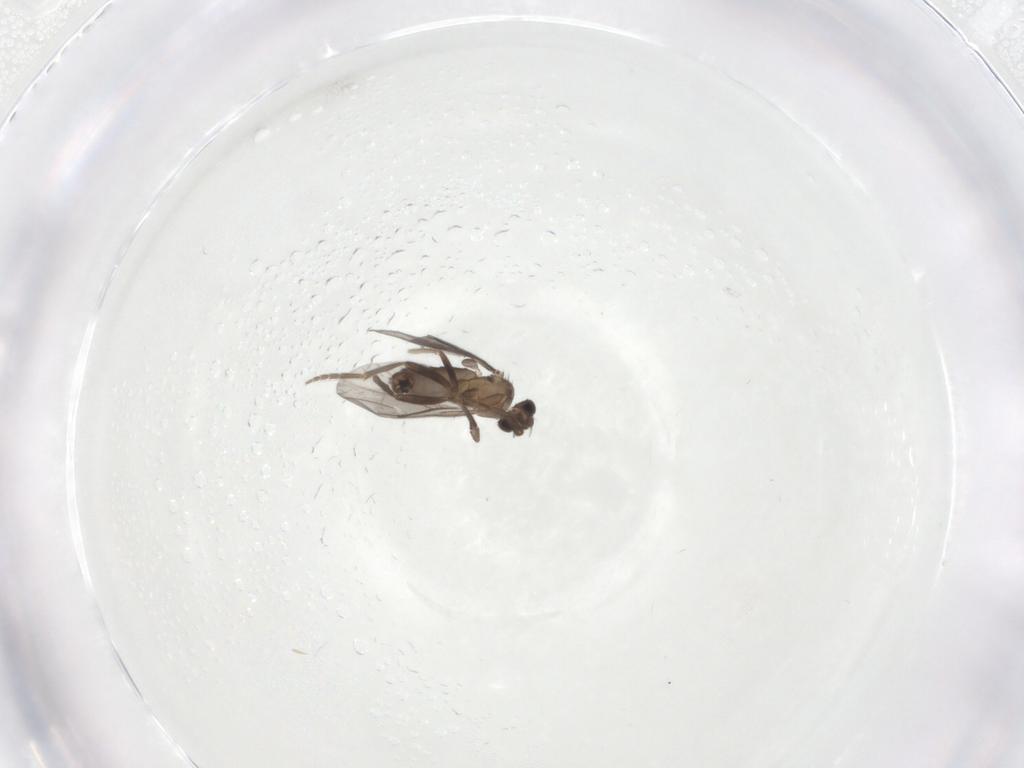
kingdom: Animalia
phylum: Arthropoda
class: Insecta
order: Diptera
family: Phoridae
